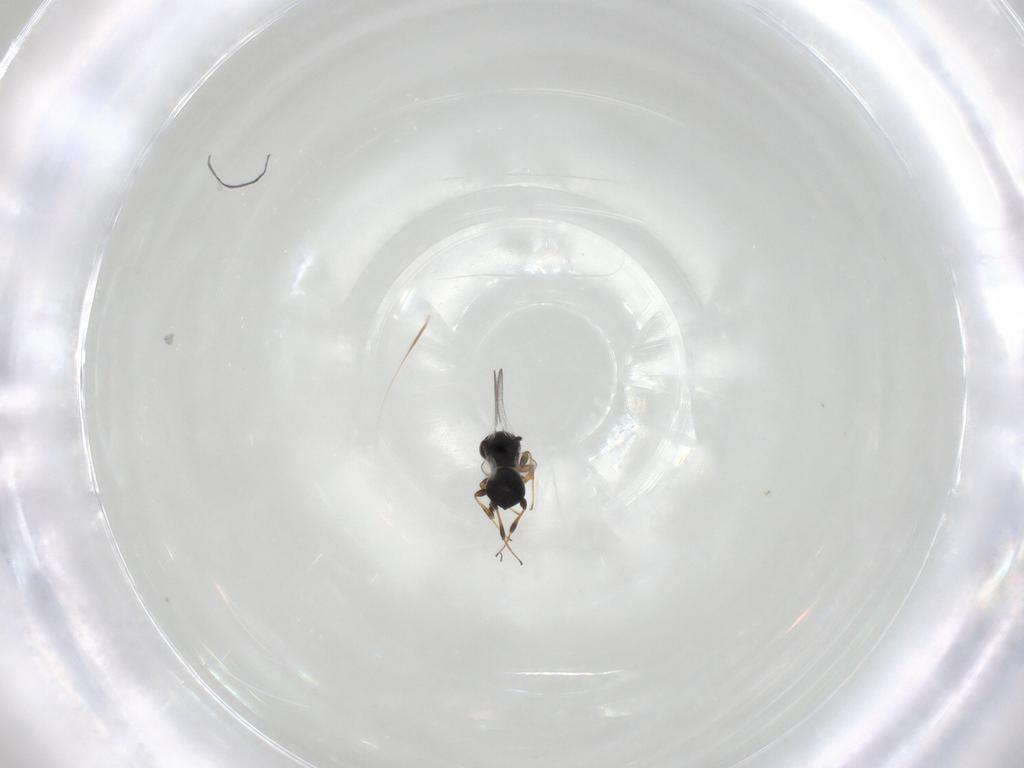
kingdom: Animalia
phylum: Arthropoda
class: Insecta
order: Hymenoptera
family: Platygastridae
